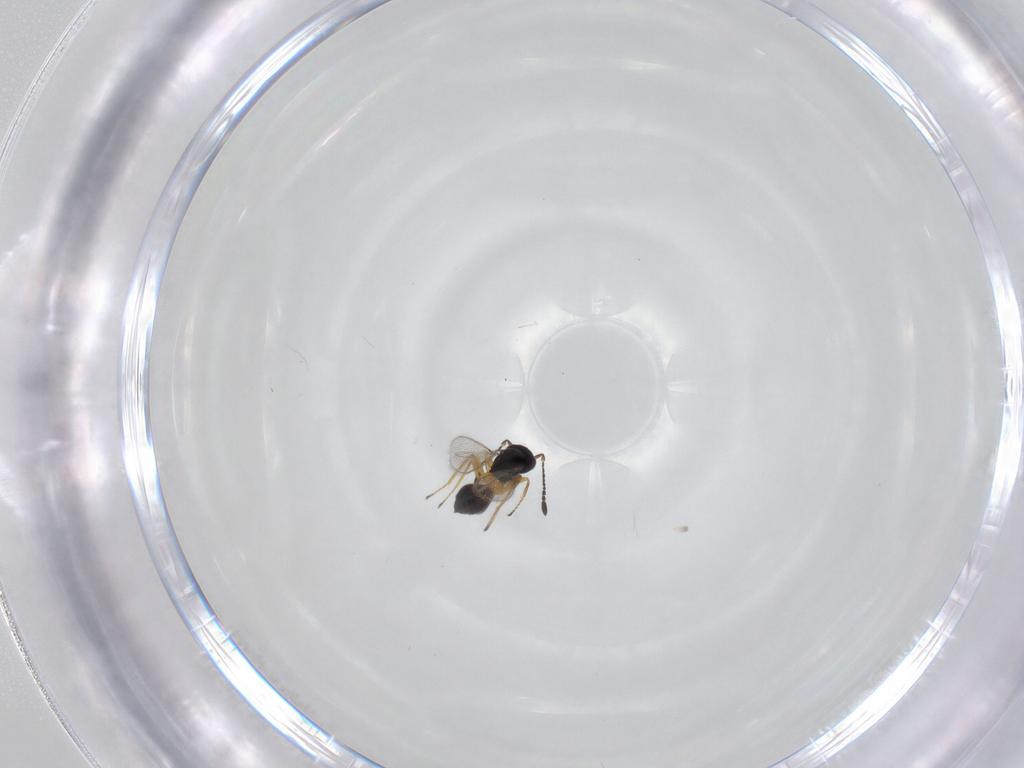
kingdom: Animalia
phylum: Arthropoda
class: Insecta
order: Hymenoptera
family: Mymaridae
